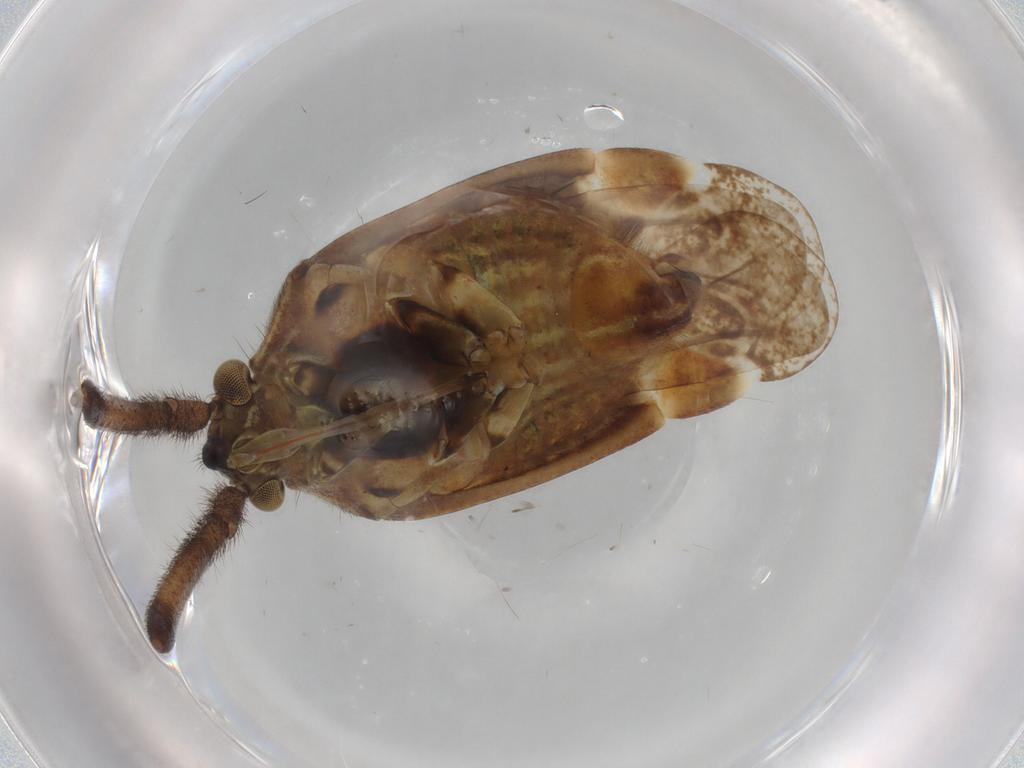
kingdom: Animalia
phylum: Arthropoda
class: Insecta
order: Hemiptera
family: Miridae
